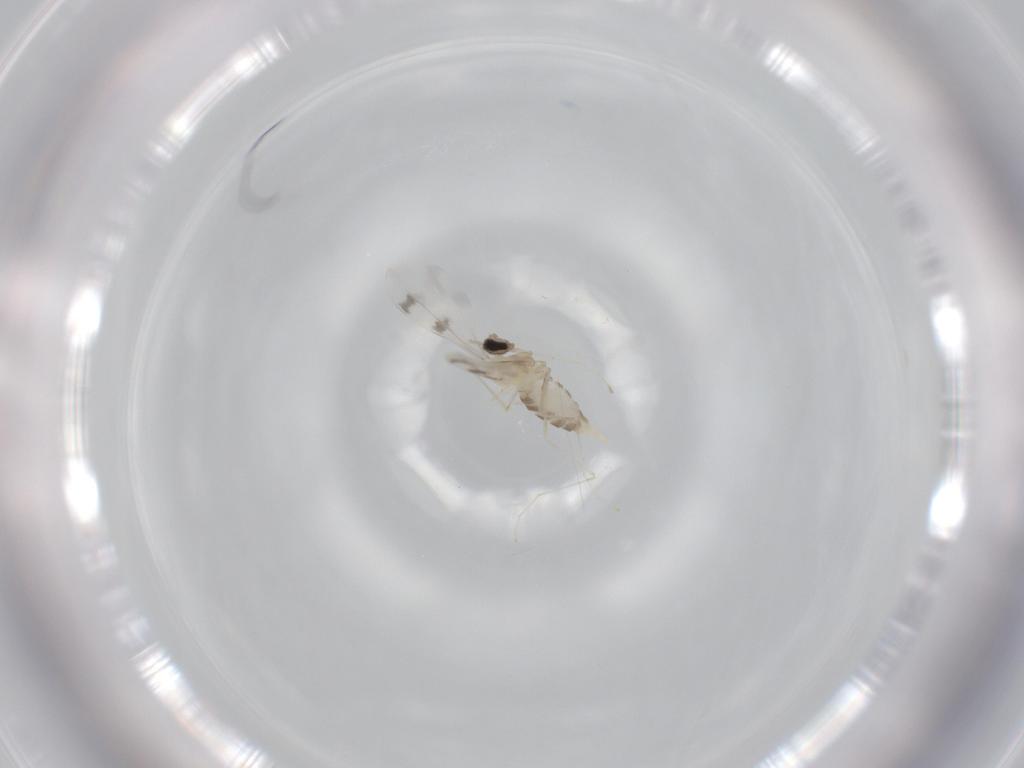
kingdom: Animalia
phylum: Arthropoda
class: Insecta
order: Diptera
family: Cecidomyiidae
